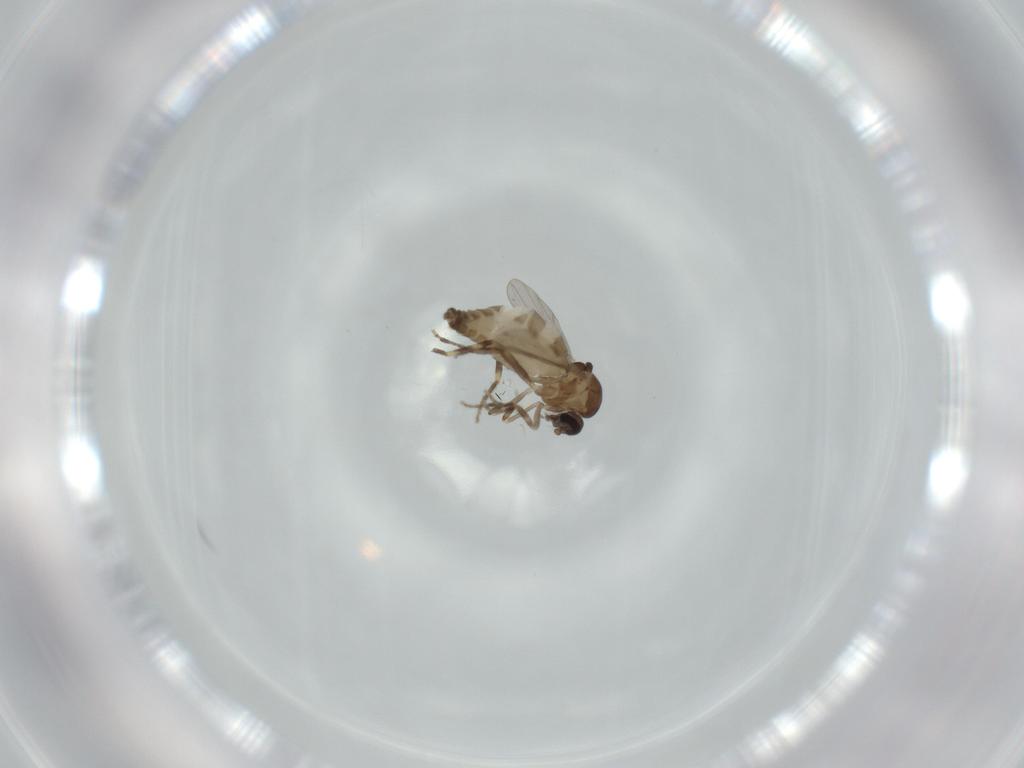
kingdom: Animalia
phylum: Arthropoda
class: Insecta
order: Diptera
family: Ceratopogonidae
